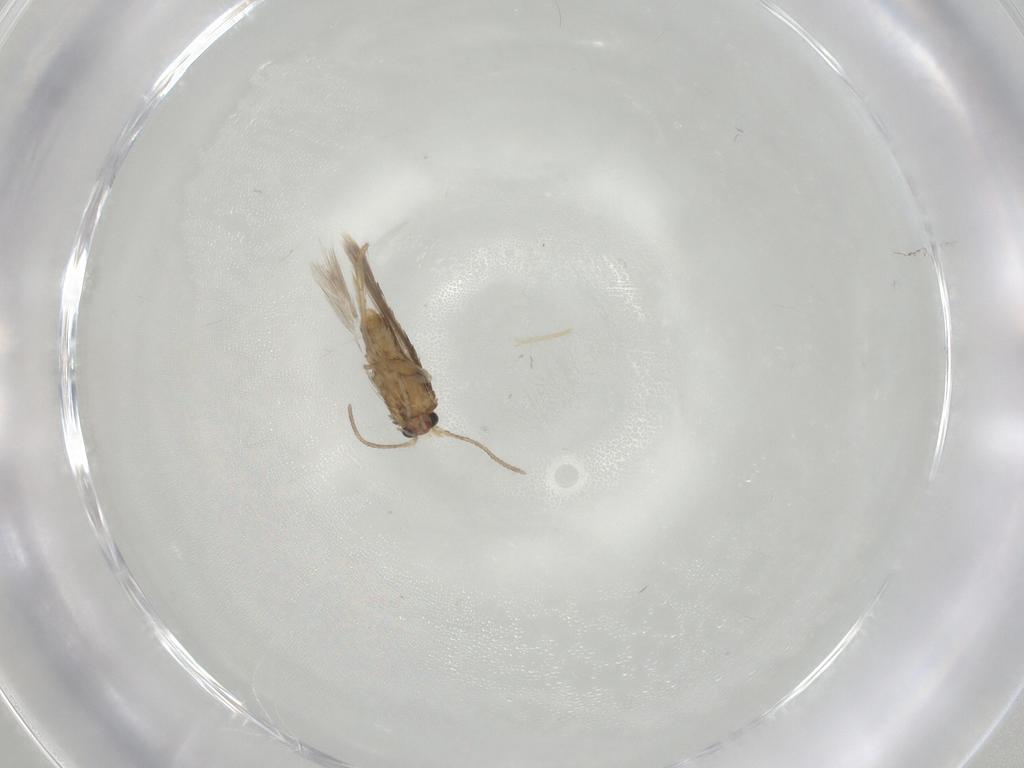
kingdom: Animalia
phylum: Arthropoda
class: Insecta
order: Lepidoptera
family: Nepticulidae
